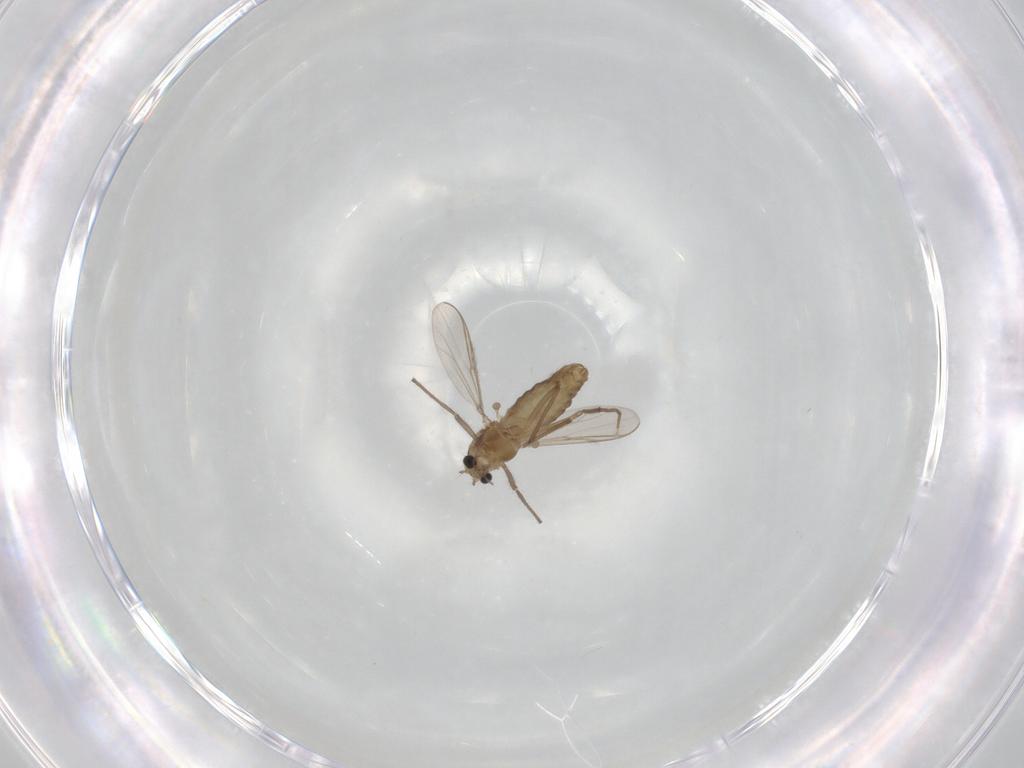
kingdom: Animalia
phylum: Arthropoda
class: Insecta
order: Diptera
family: Chironomidae
